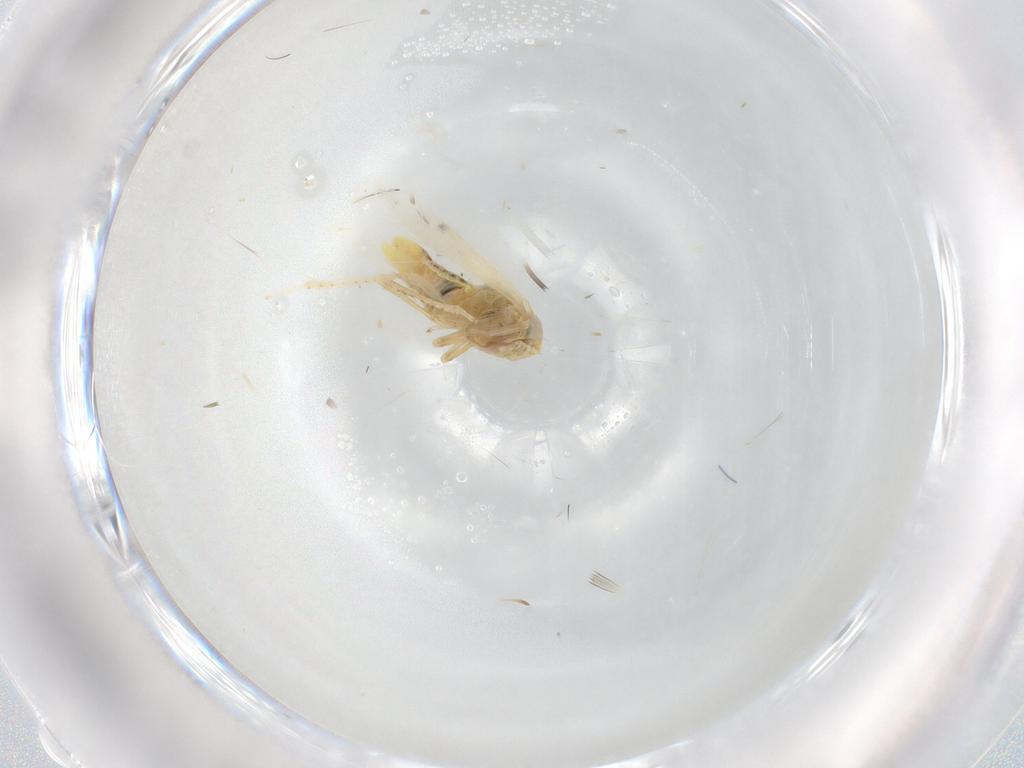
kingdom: Animalia
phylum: Arthropoda
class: Insecta
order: Hemiptera
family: Cicadellidae
